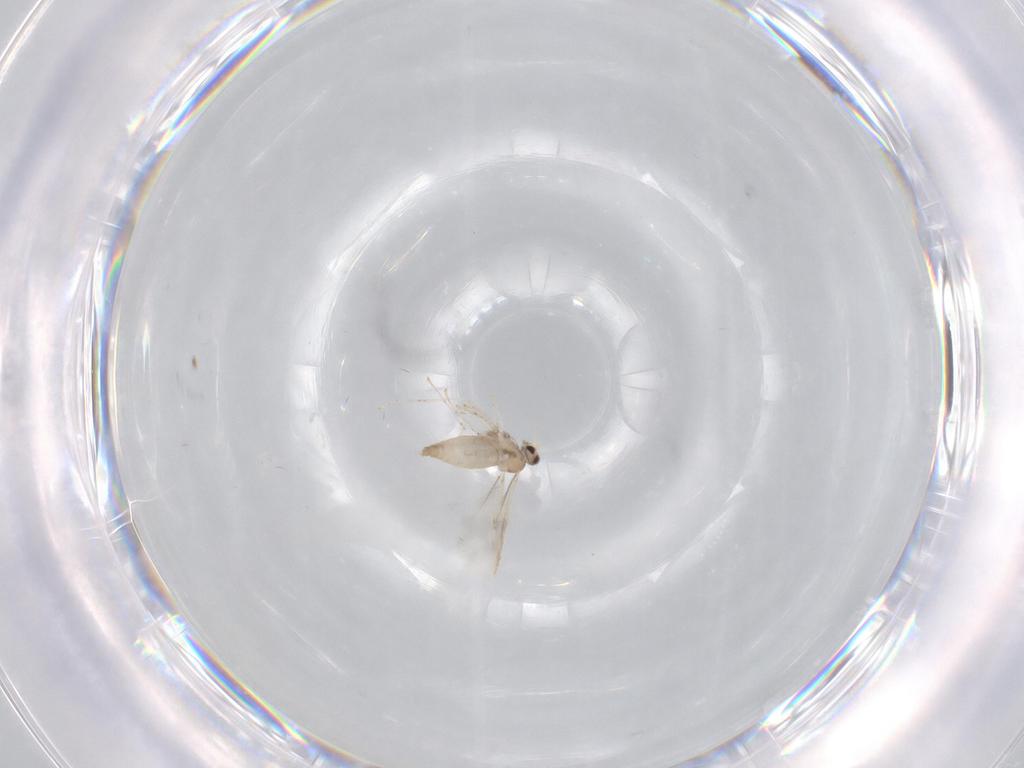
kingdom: Animalia
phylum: Arthropoda
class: Insecta
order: Diptera
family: Cecidomyiidae
